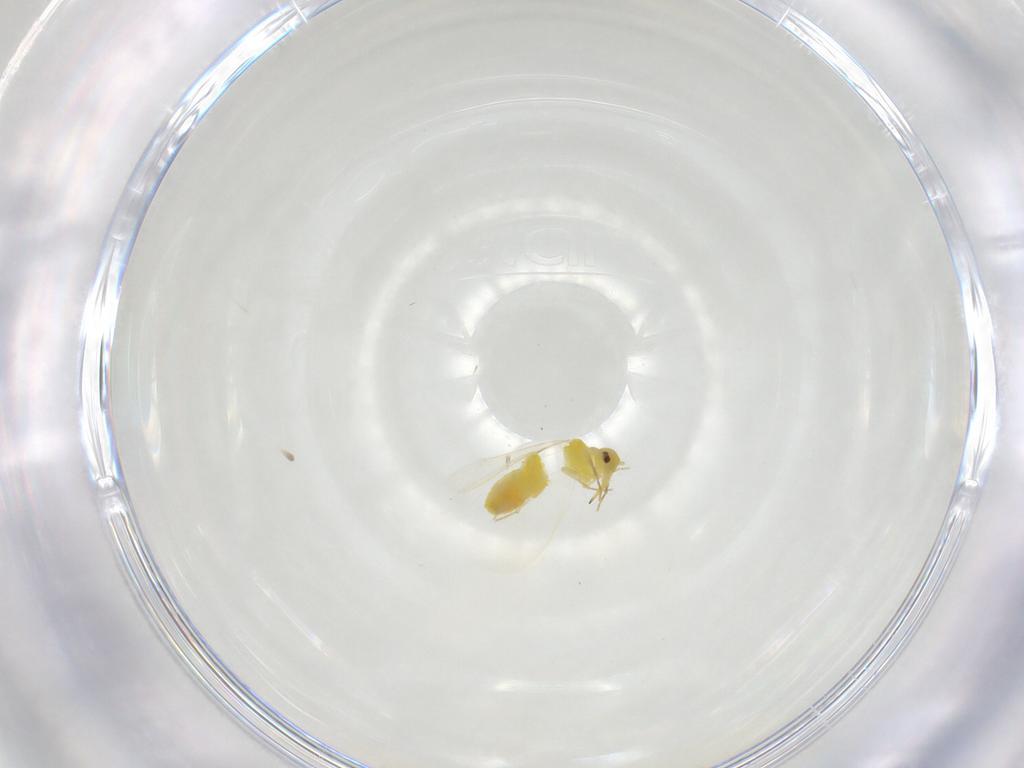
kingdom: Animalia
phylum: Arthropoda
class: Insecta
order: Hemiptera
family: Aleyrodidae
